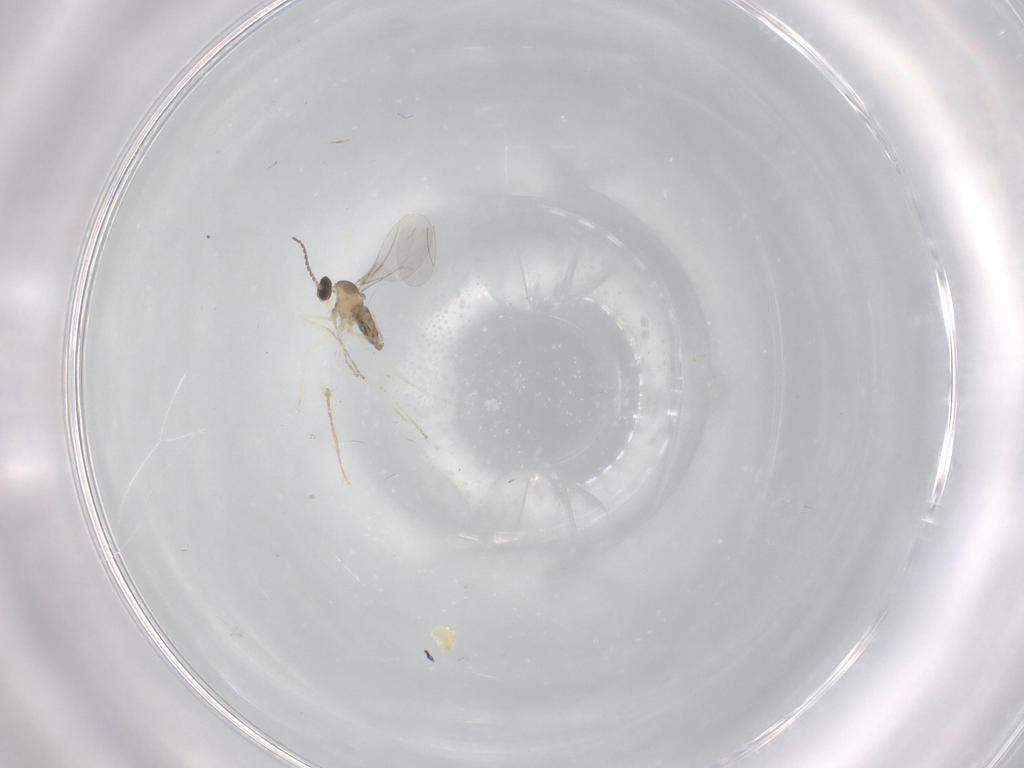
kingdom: Animalia
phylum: Arthropoda
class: Insecta
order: Diptera
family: Cecidomyiidae
